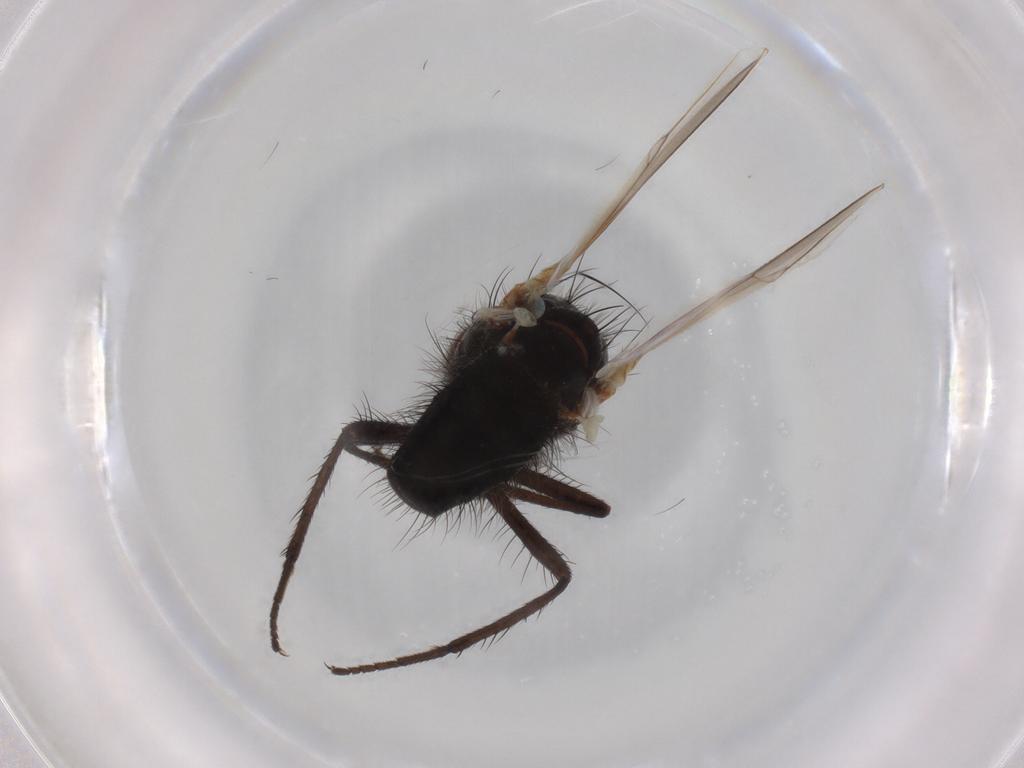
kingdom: Animalia
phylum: Arthropoda
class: Insecta
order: Diptera
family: Anthomyiidae
